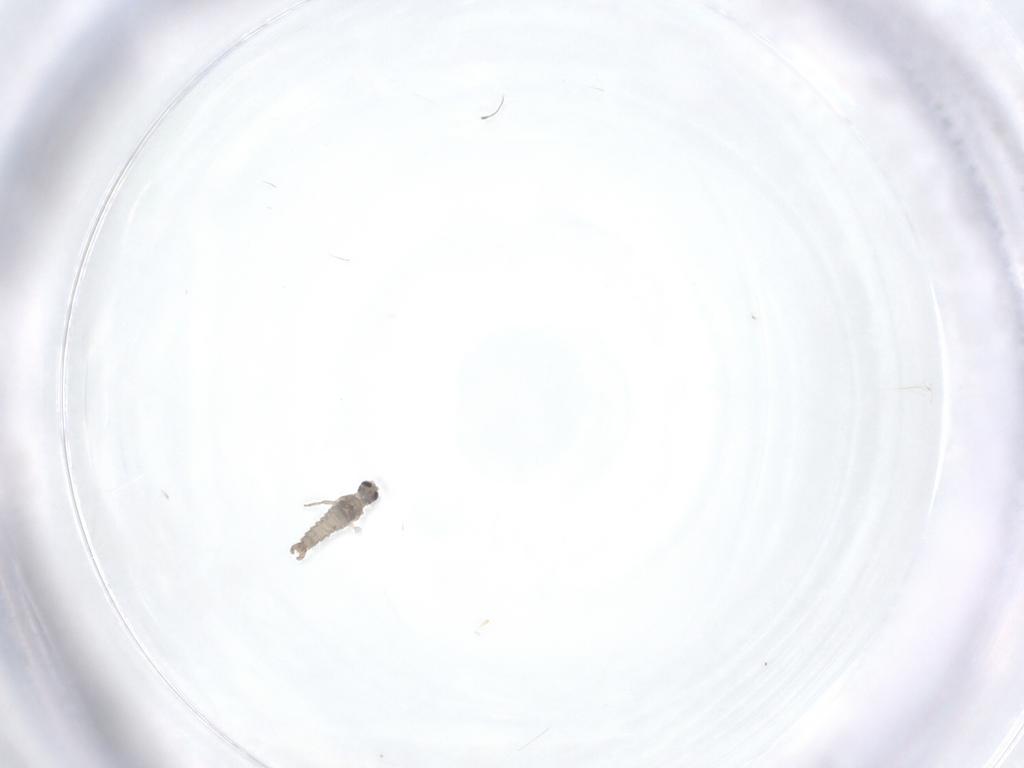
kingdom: Animalia
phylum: Arthropoda
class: Insecta
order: Diptera
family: Cecidomyiidae
